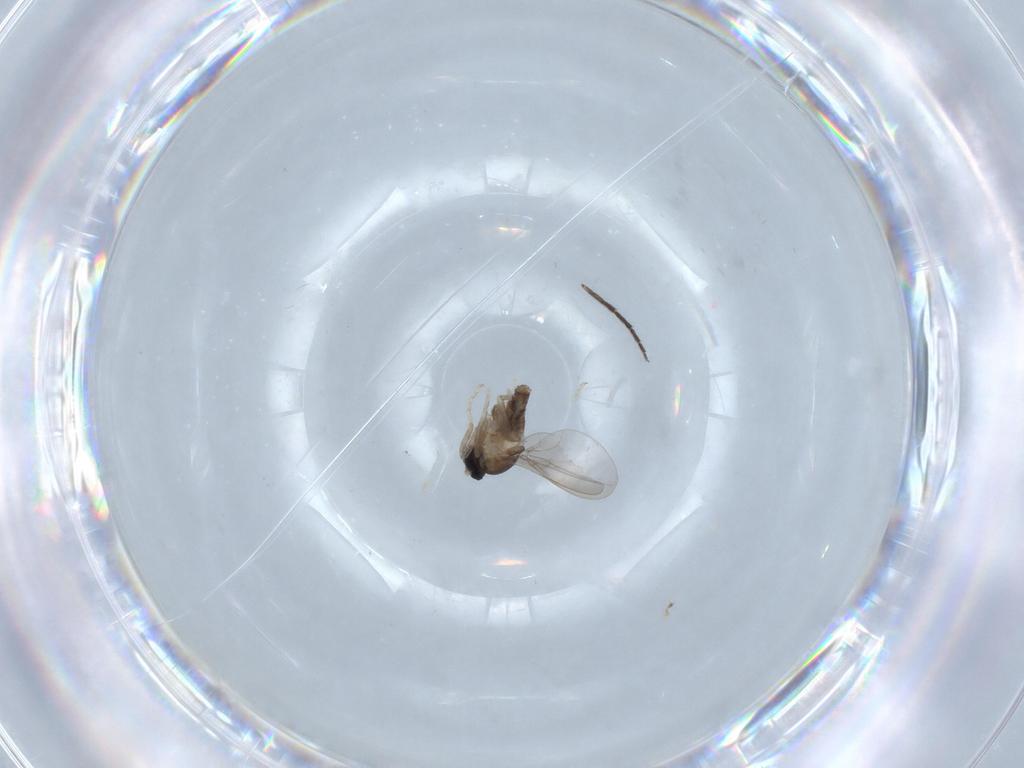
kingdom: Animalia
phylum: Arthropoda
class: Insecta
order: Diptera
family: Cecidomyiidae
